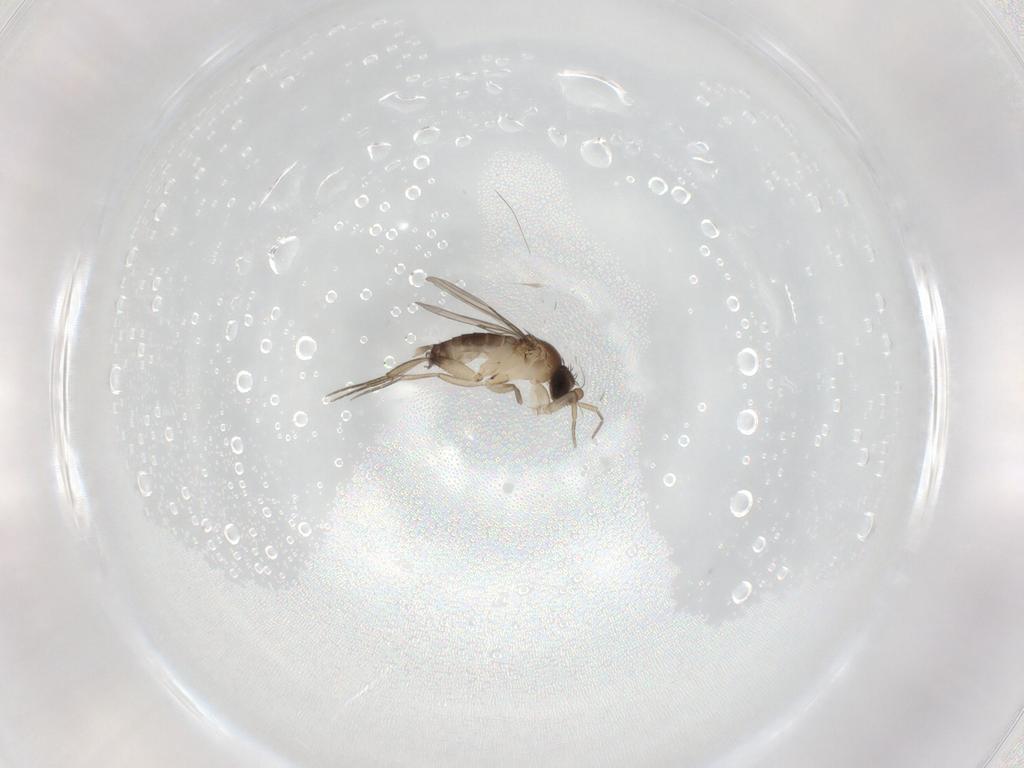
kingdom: Animalia
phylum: Arthropoda
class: Insecta
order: Diptera
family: Phoridae
